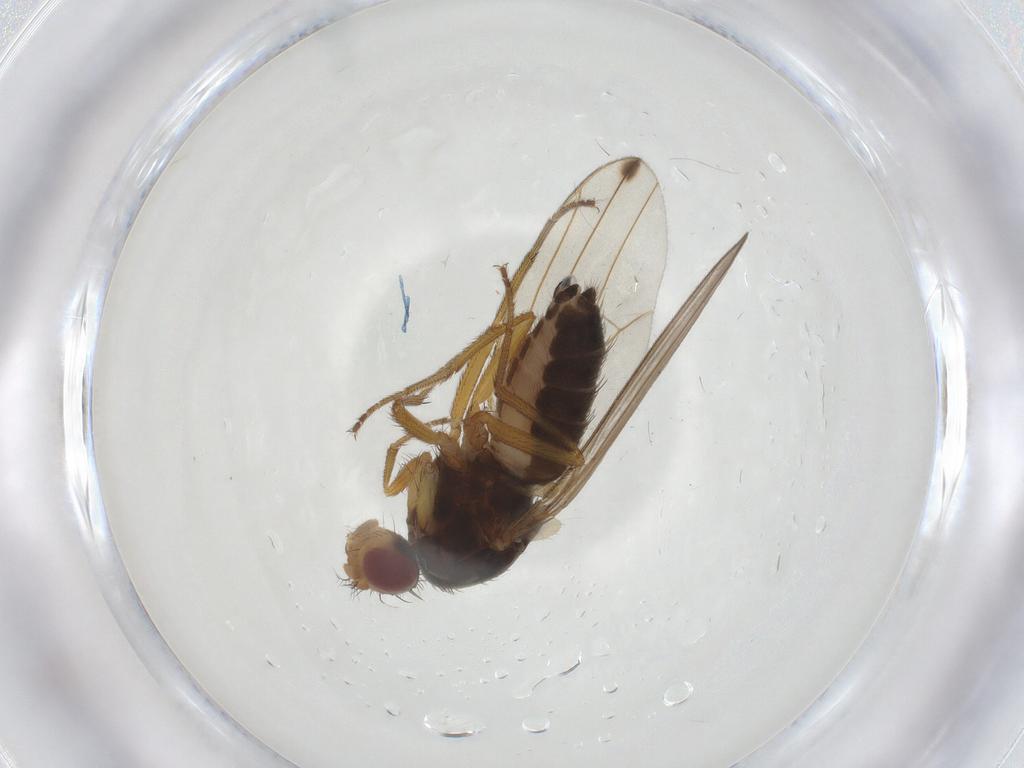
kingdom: Animalia
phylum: Arthropoda
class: Insecta
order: Diptera
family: Drosophilidae
